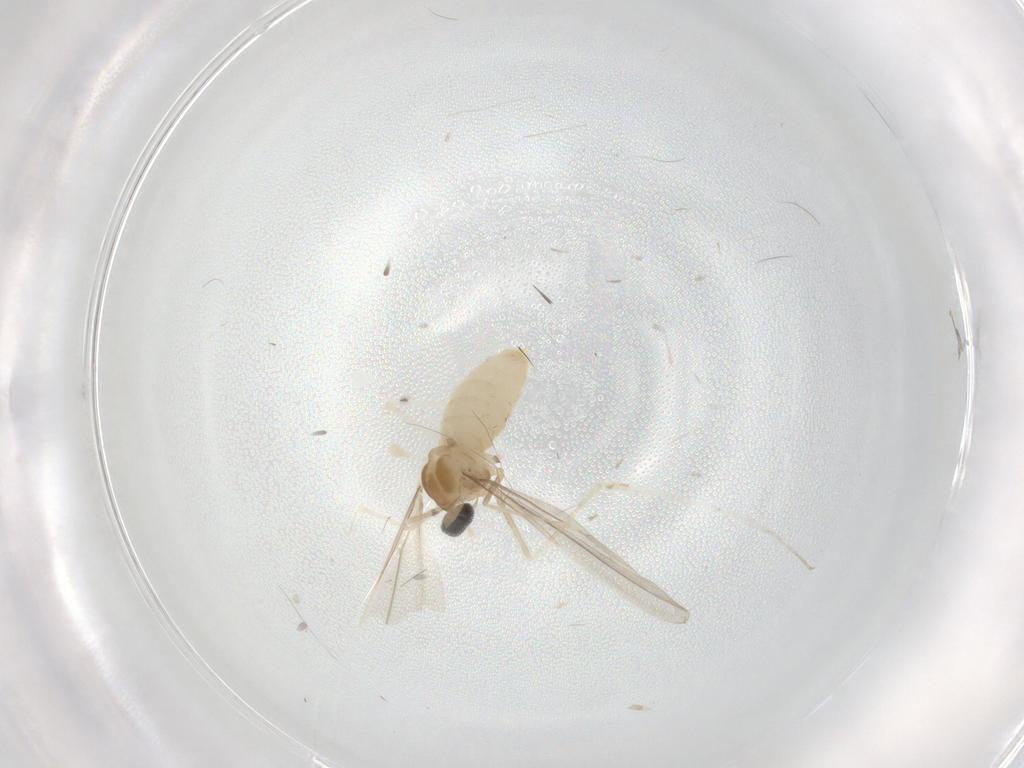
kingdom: Animalia
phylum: Arthropoda
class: Insecta
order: Diptera
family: Cecidomyiidae
